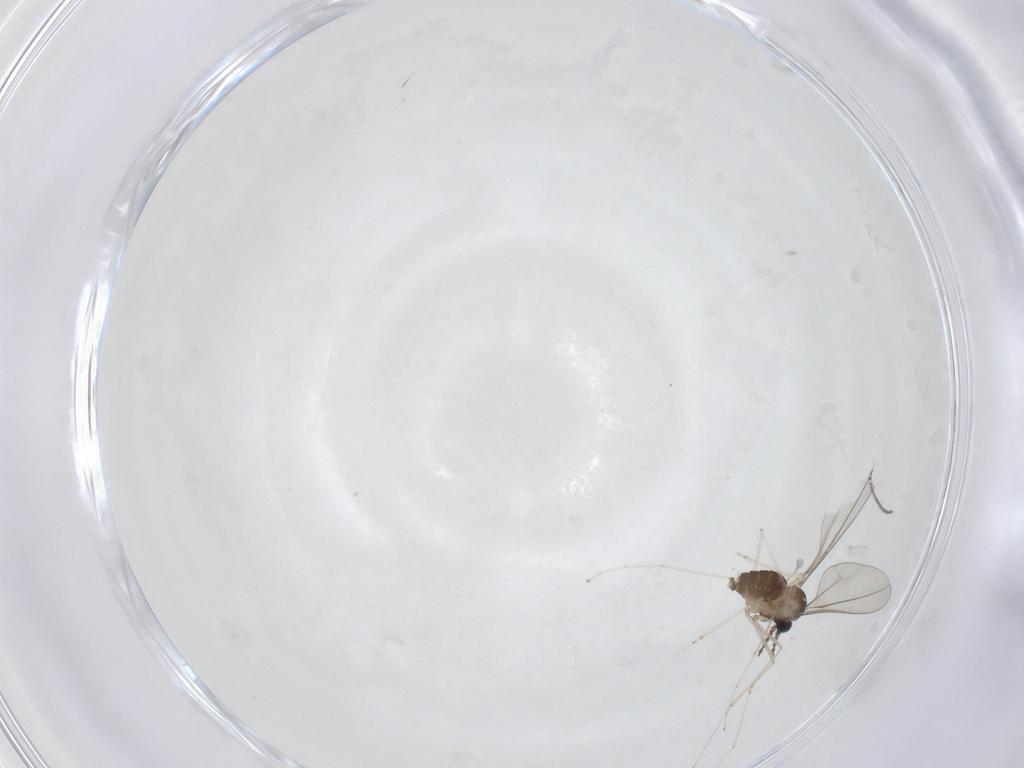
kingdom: Animalia
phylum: Arthropoda
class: Insecta
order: Diptera
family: Cecidomyiidae
